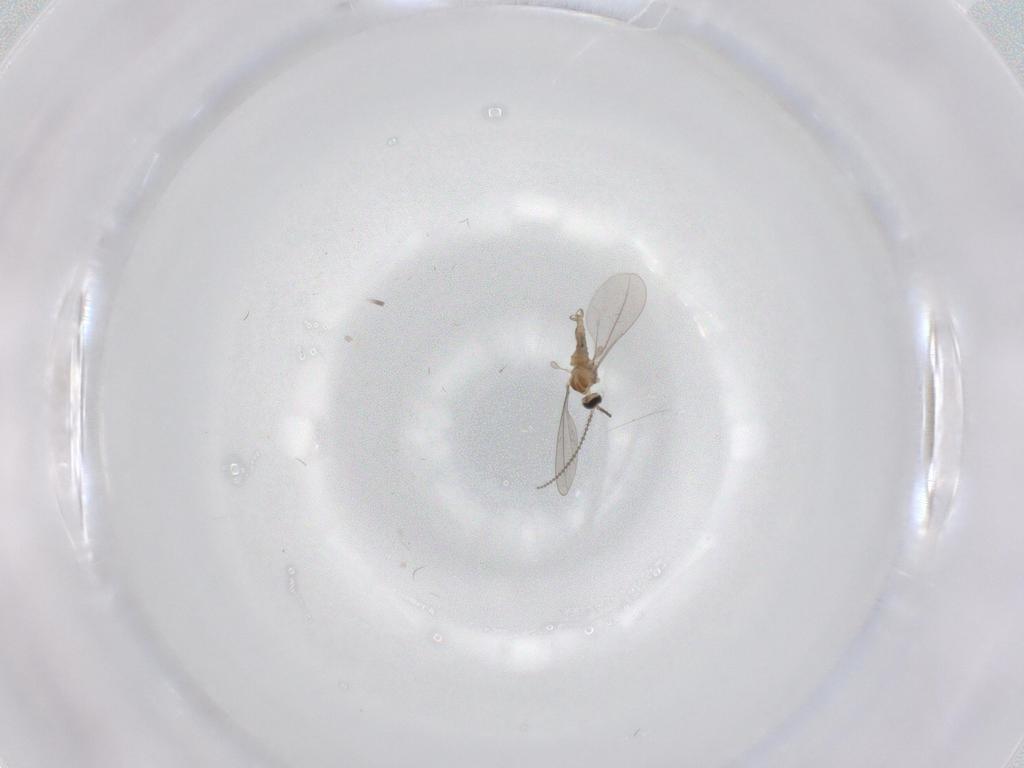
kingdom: Animalia
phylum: Arthropoda
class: Insecta
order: Diptera
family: Cecidomyiidae
